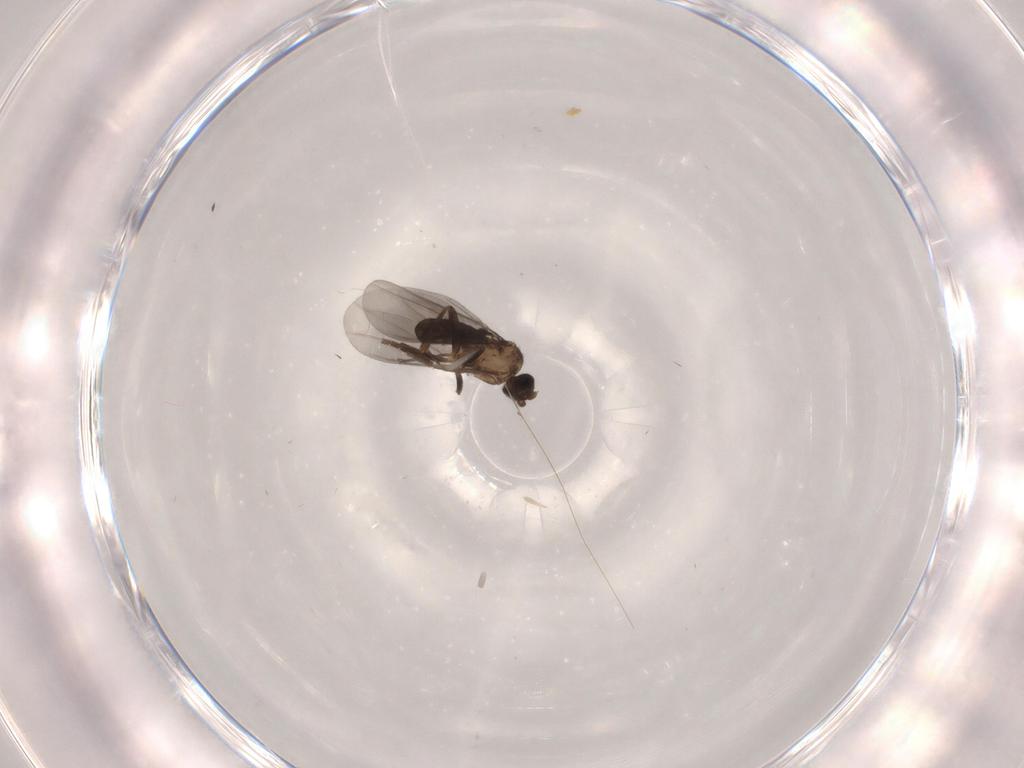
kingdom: Animalia
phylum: Arthropoda
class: Insecta
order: Diptera
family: Phoridae
